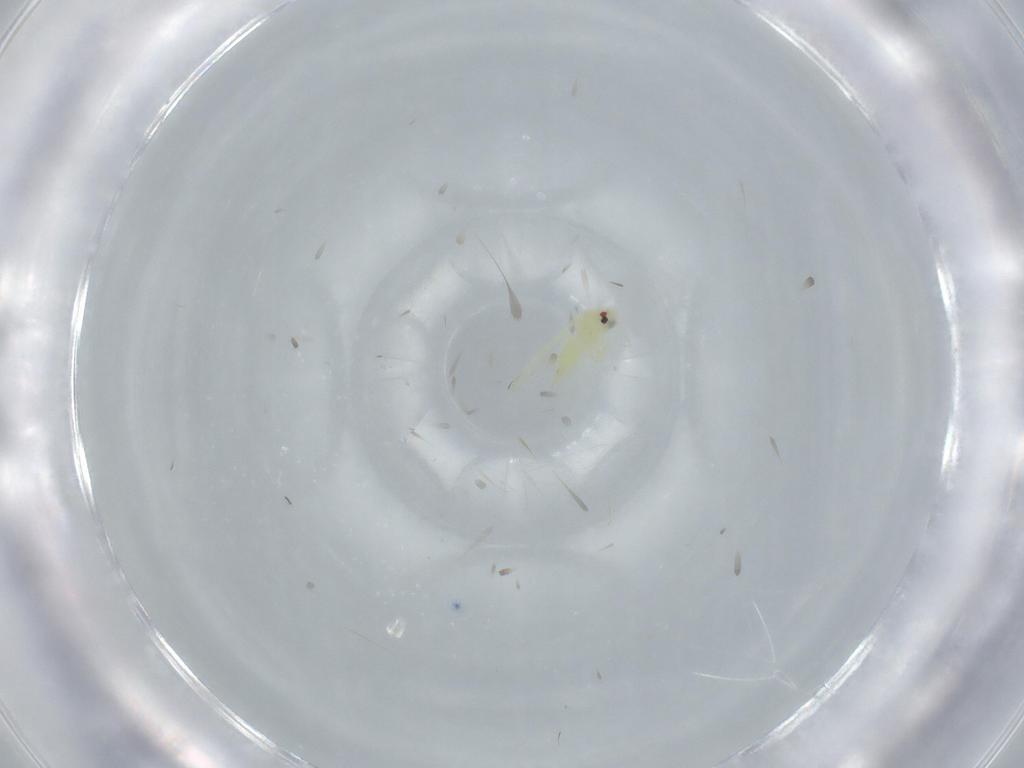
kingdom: Animalia
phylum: Arthropoda
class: Insecta
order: Hemiptera
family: Aleyrodidae
